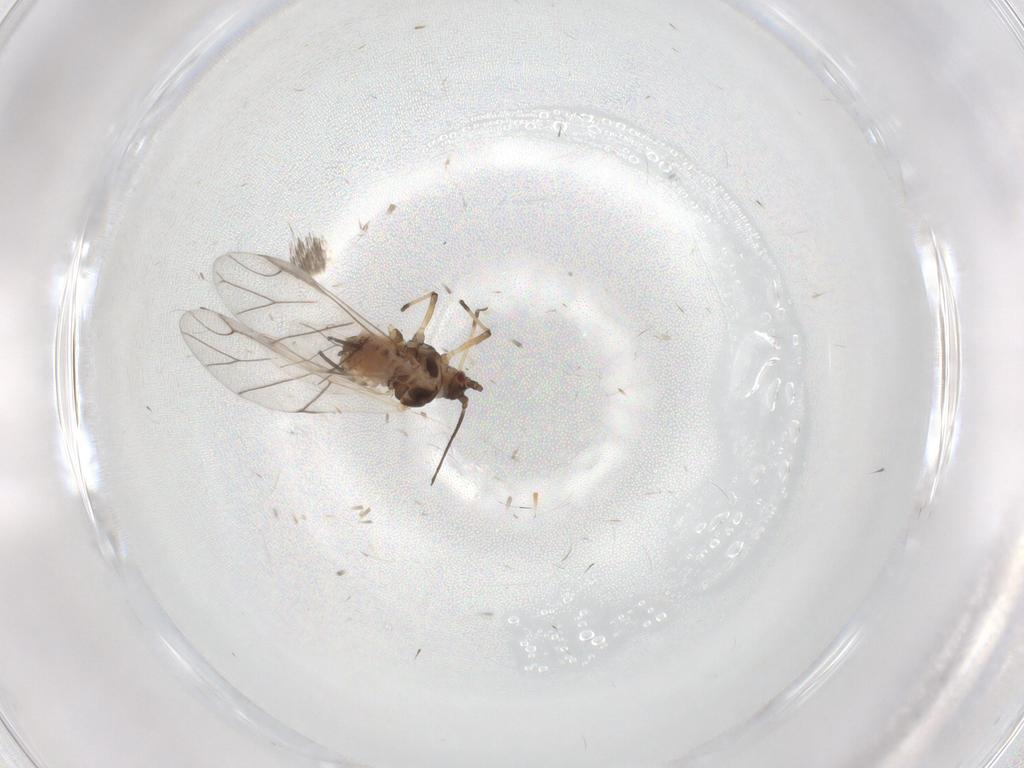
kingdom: Animalia
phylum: Arthropoda
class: Insecta
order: Hemiptera
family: Aphididae
